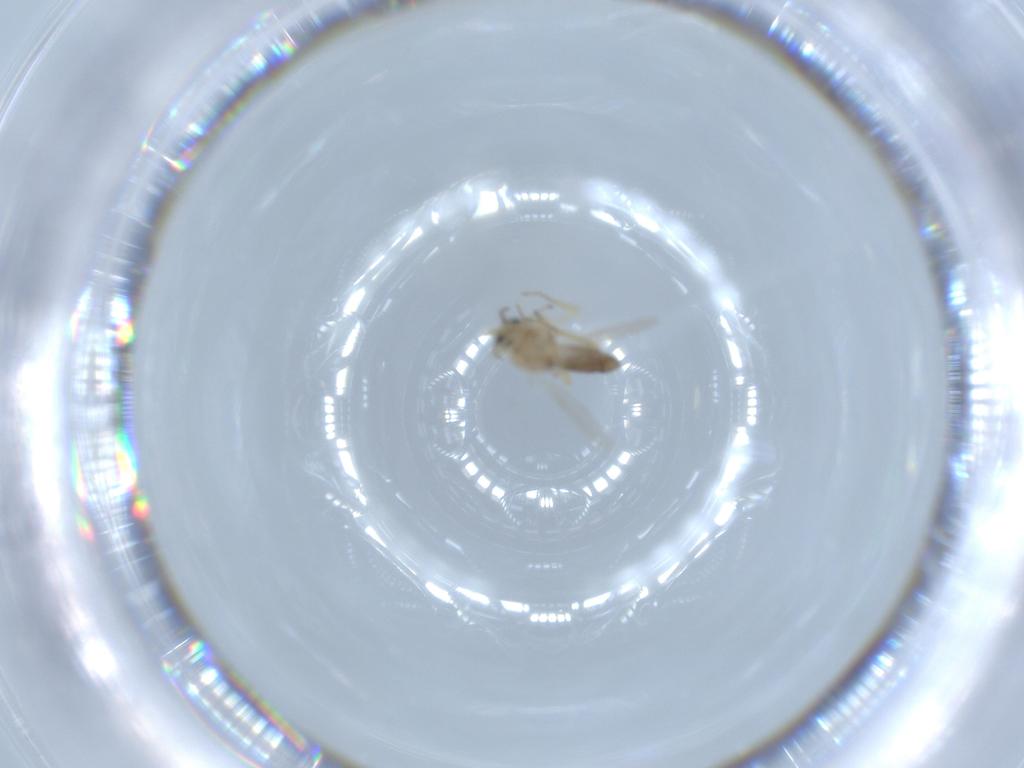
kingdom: Animalia
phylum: Arthropoda
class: Insecta
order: Diptera
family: Ceratopogonidae
